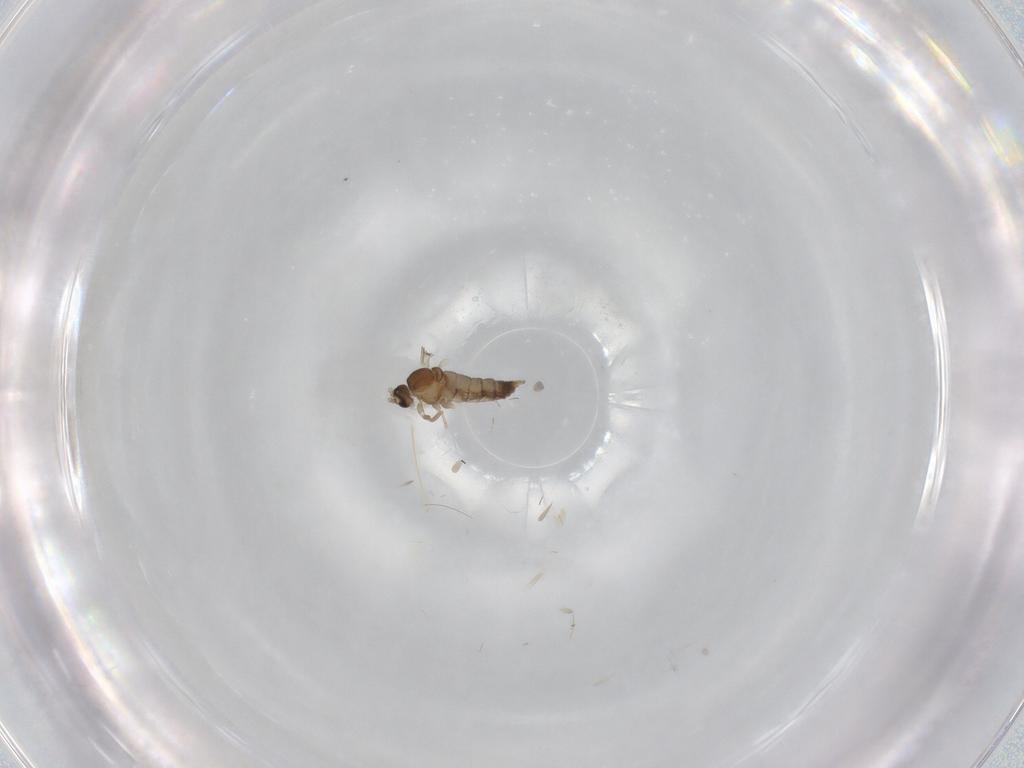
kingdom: Animalia
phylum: Arthropoda
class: Insecta
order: Diptera
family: Cecidomyiidae
